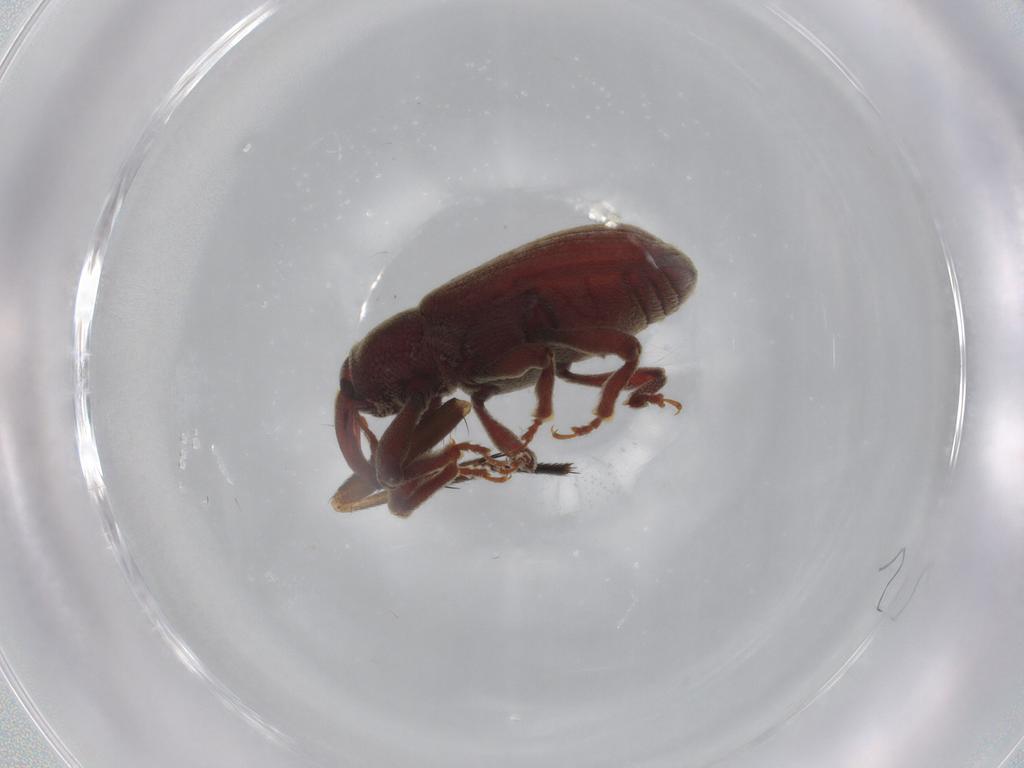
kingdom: Animalia
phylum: Arthropoda
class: Insecta
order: Coleoptera
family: Curculionidae
